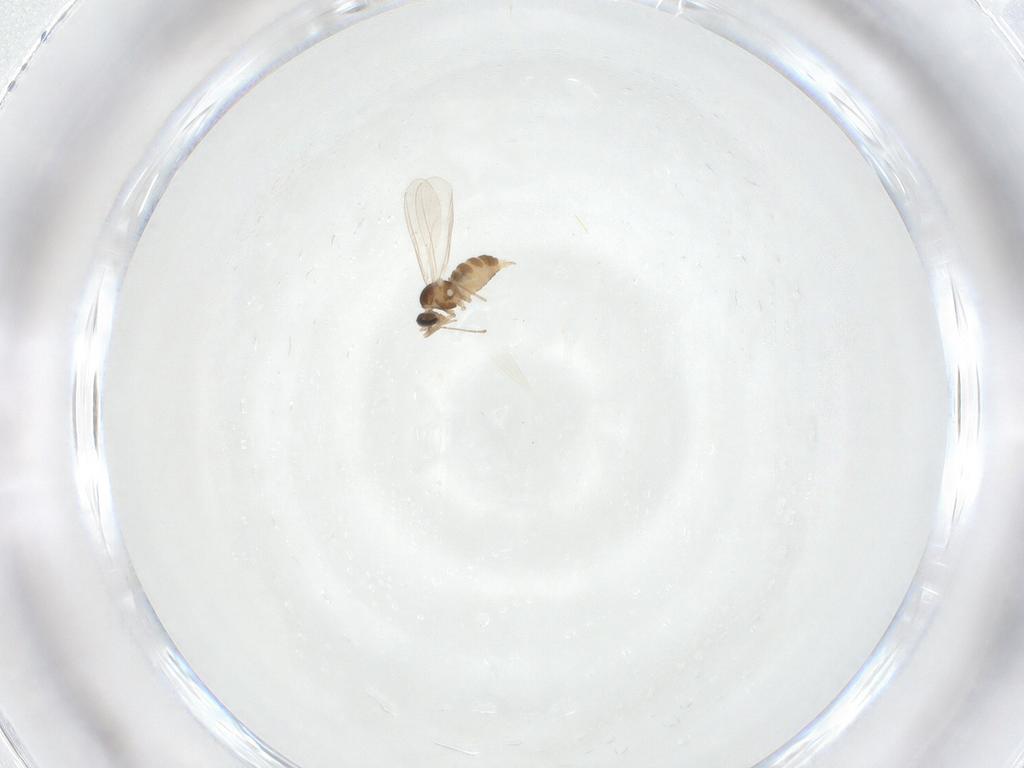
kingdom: Animalia
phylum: Arthropoda
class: Insecta
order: Diptera
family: Cecidomyiidae
